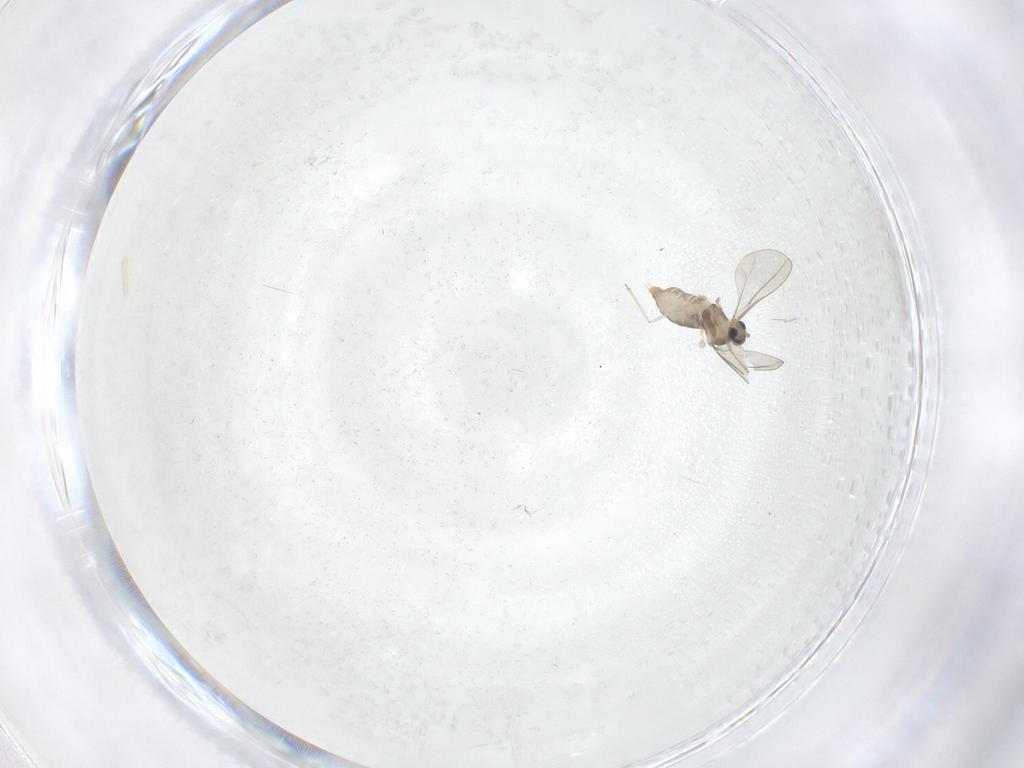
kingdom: Animalia
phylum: Arthropoda
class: Insecta
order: Diptera
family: Cecidomyiidae
